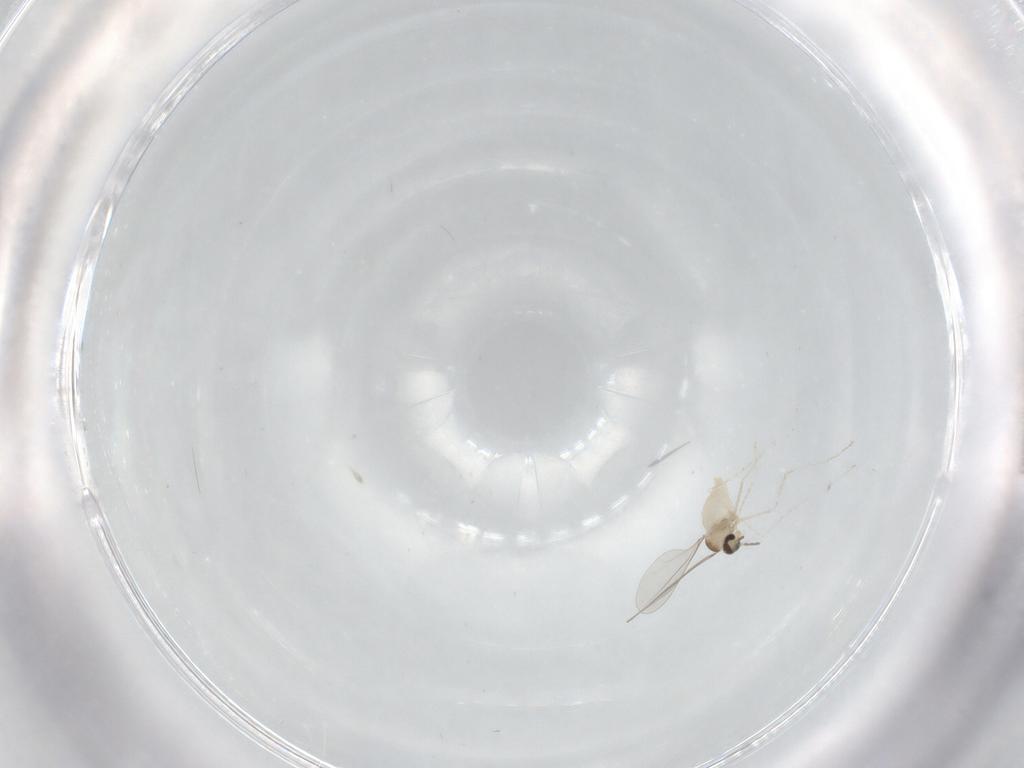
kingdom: Animalia
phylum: Arthropoda
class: Insecta
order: Diptera
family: Cecidomyiidae
